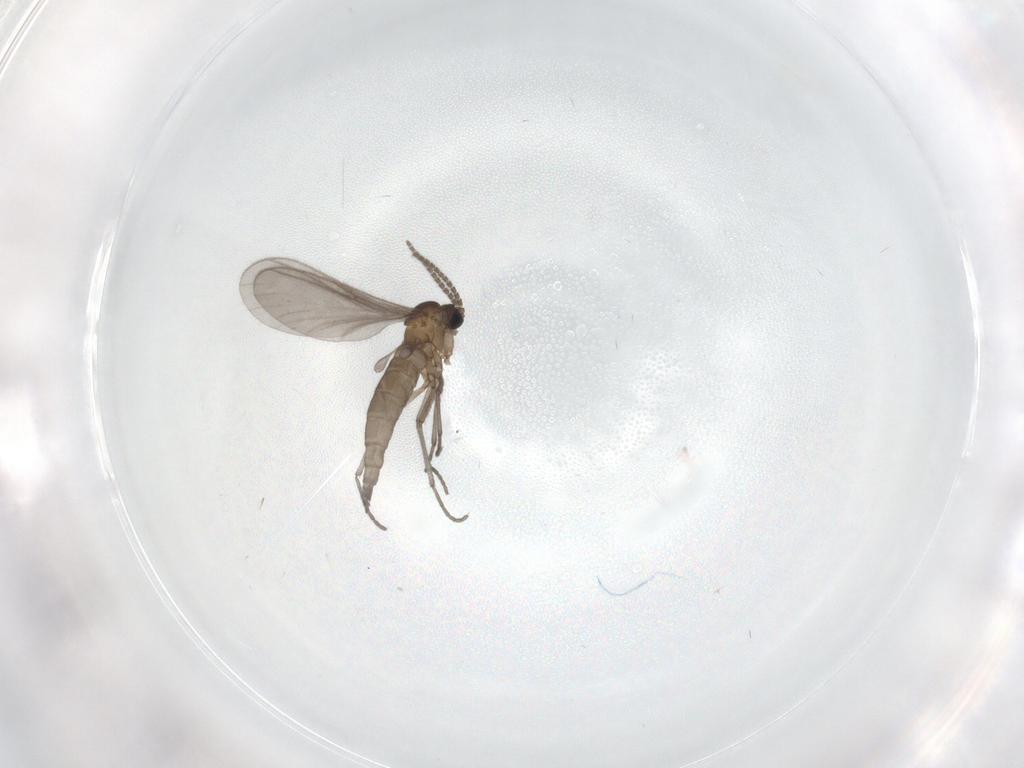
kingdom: Animalia
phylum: Arthropoda
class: Insecta
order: Diptera
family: Sciaridae
